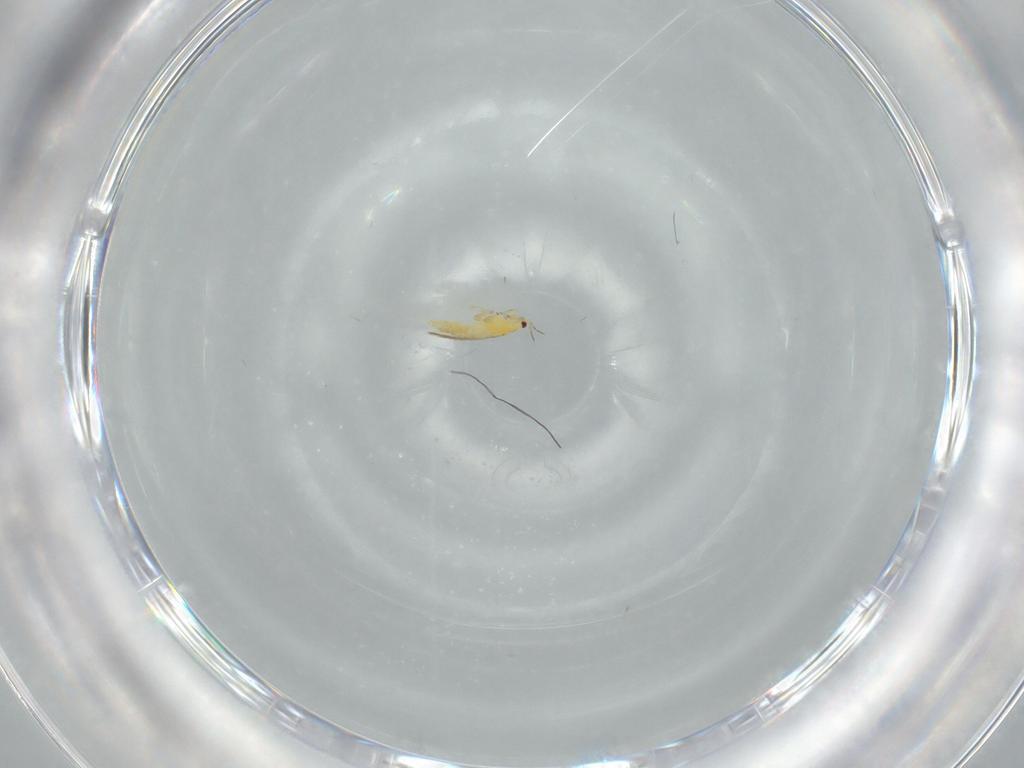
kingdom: Animalia
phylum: Arthropoda
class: Insecta
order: Thysanoptera
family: Thripidae
